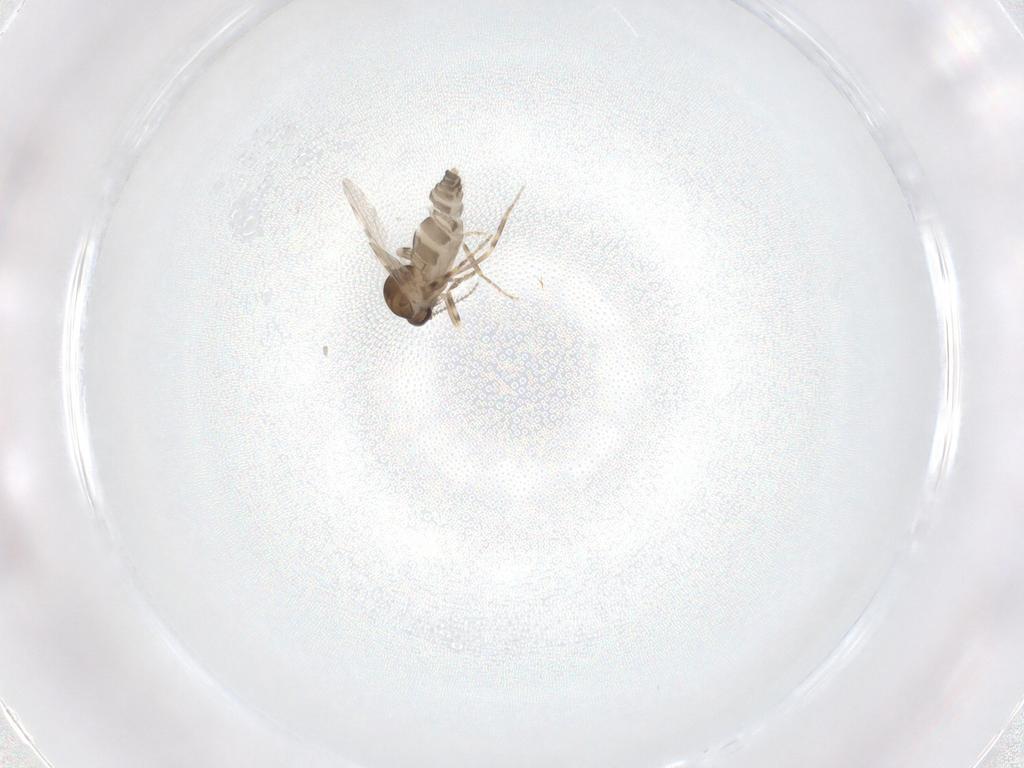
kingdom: Animalia
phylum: Arthropoda
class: Insecta
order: Diptera
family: Ceratopogonidae
